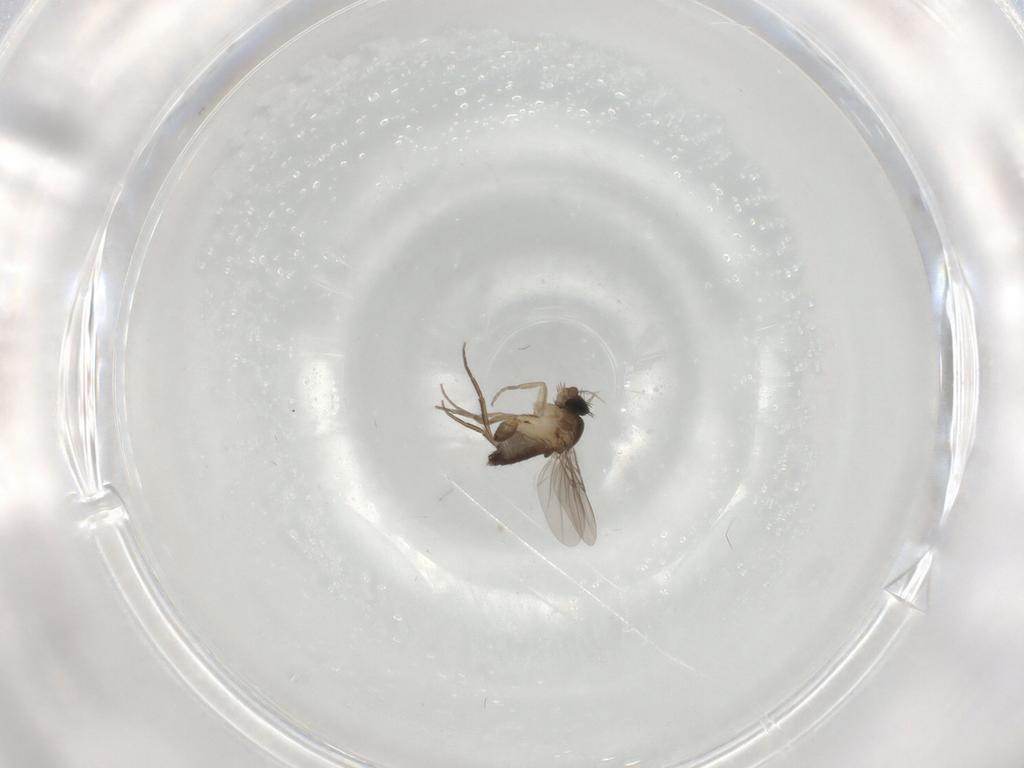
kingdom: Animalia
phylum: Arthropoda
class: Insecta
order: Diptera
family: Phoridae
